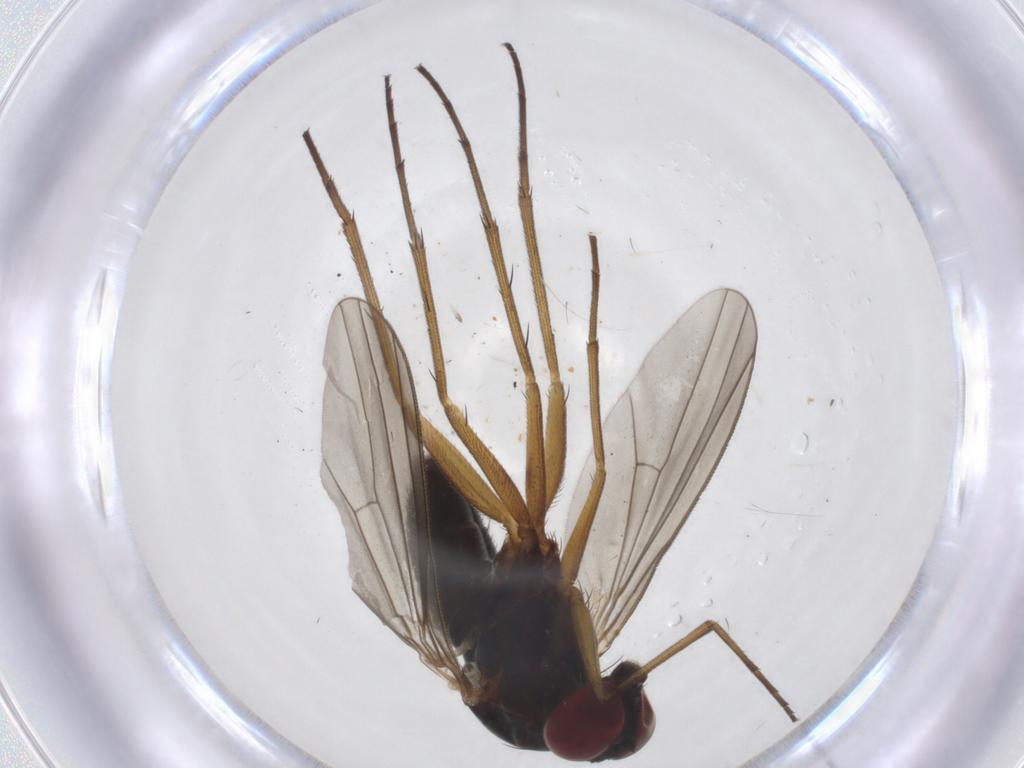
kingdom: Animalia
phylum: Arthropoda
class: Insecta
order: Diptera
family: Dolichopodidae
